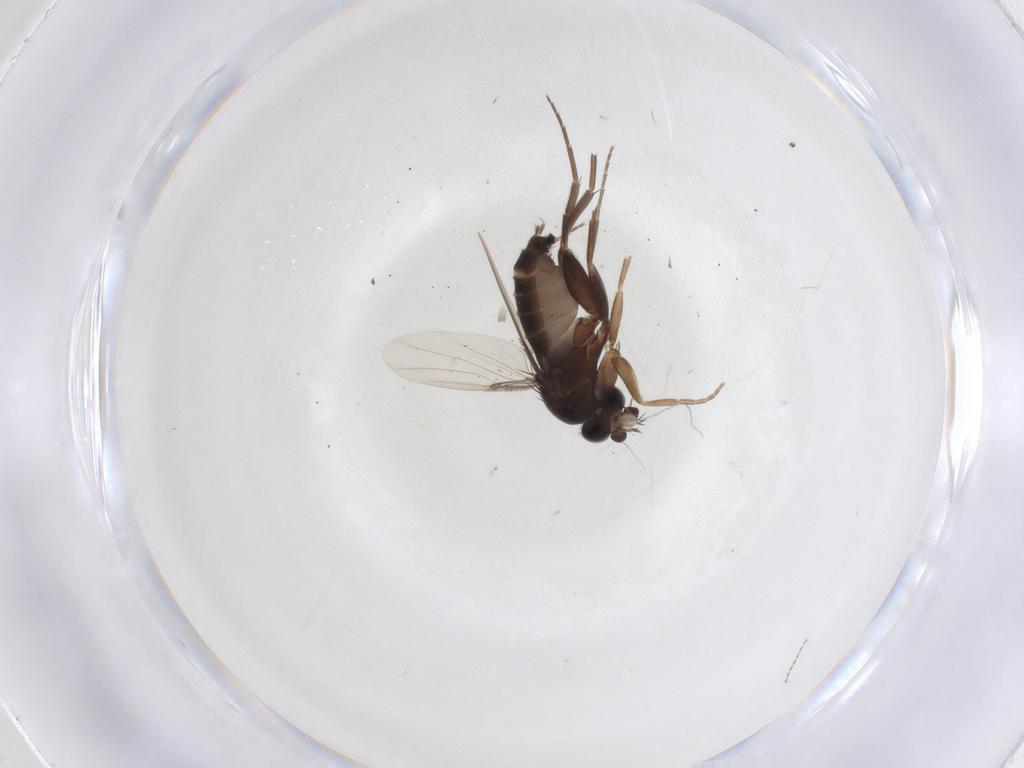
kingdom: Animalia
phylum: Arthropoda
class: Insecta
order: Diptera
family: Phoridae
